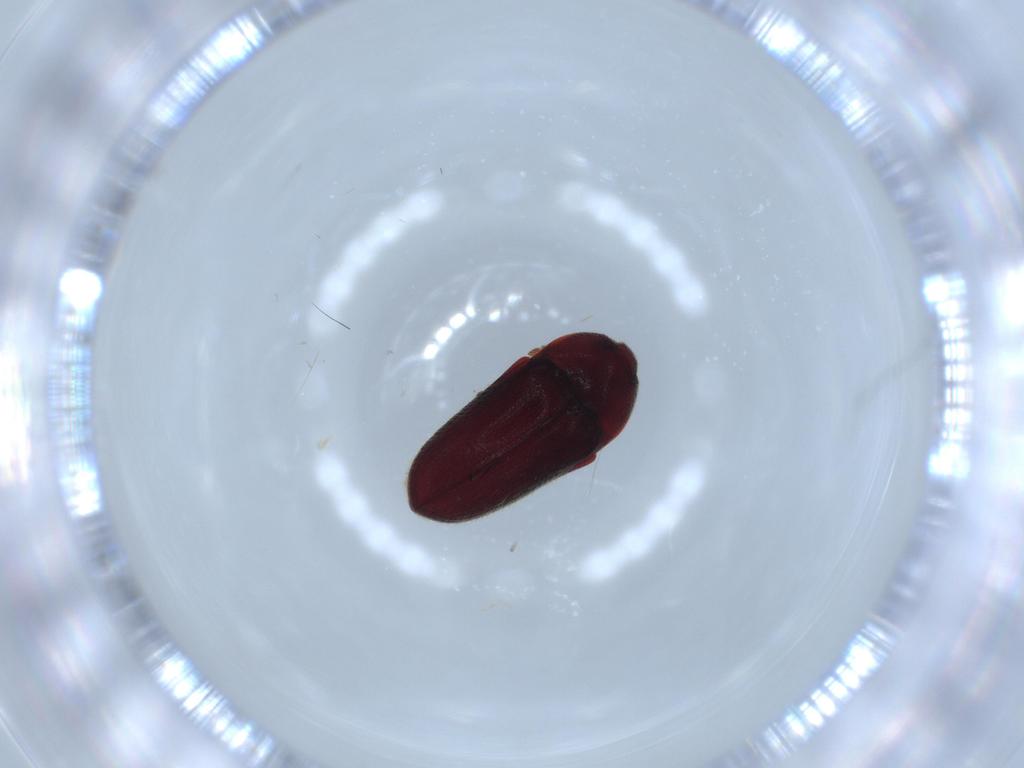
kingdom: Animalia
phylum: Arthropoda
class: Insecta
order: Coleoptera
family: Throscidae
